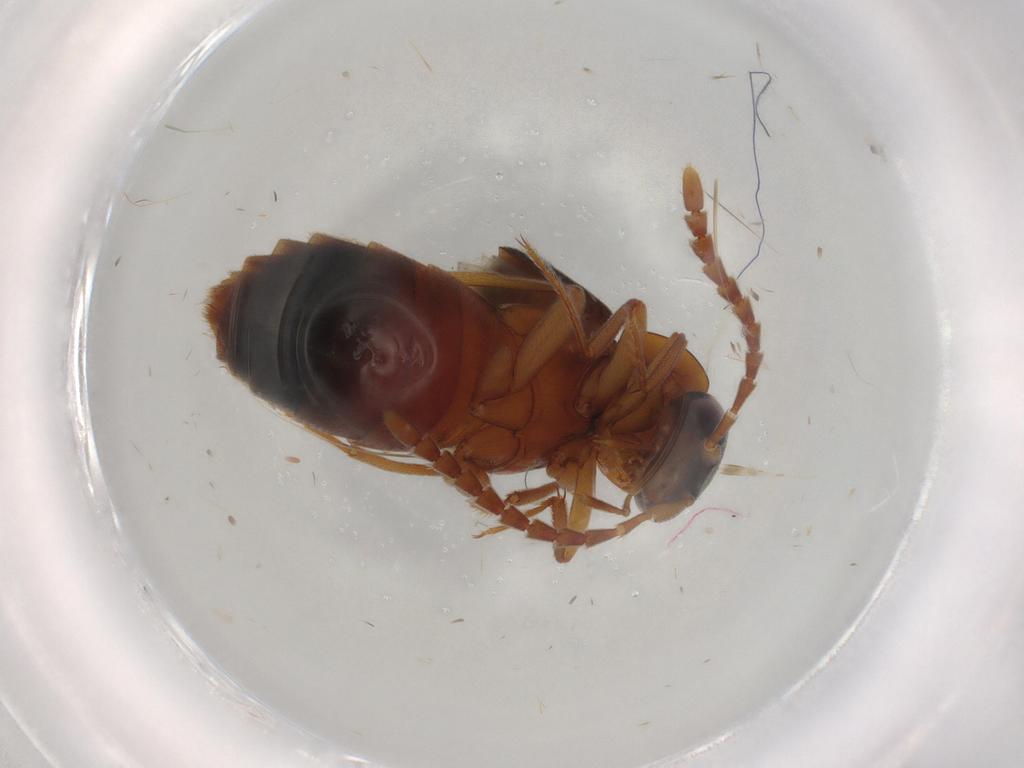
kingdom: Animalia
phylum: Arthropoda
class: Insecta
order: Coleoptera
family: Staphylinidae
